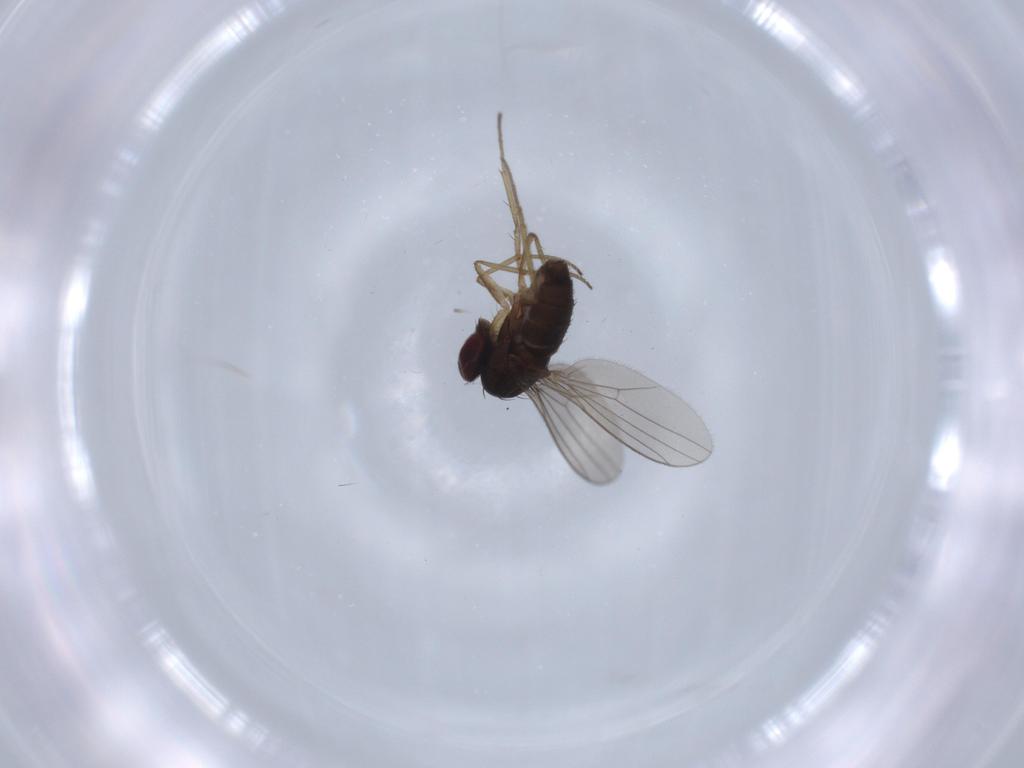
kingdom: Animalia
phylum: Arthropoda
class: Insecta
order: Diptera
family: Dolichopodidae
